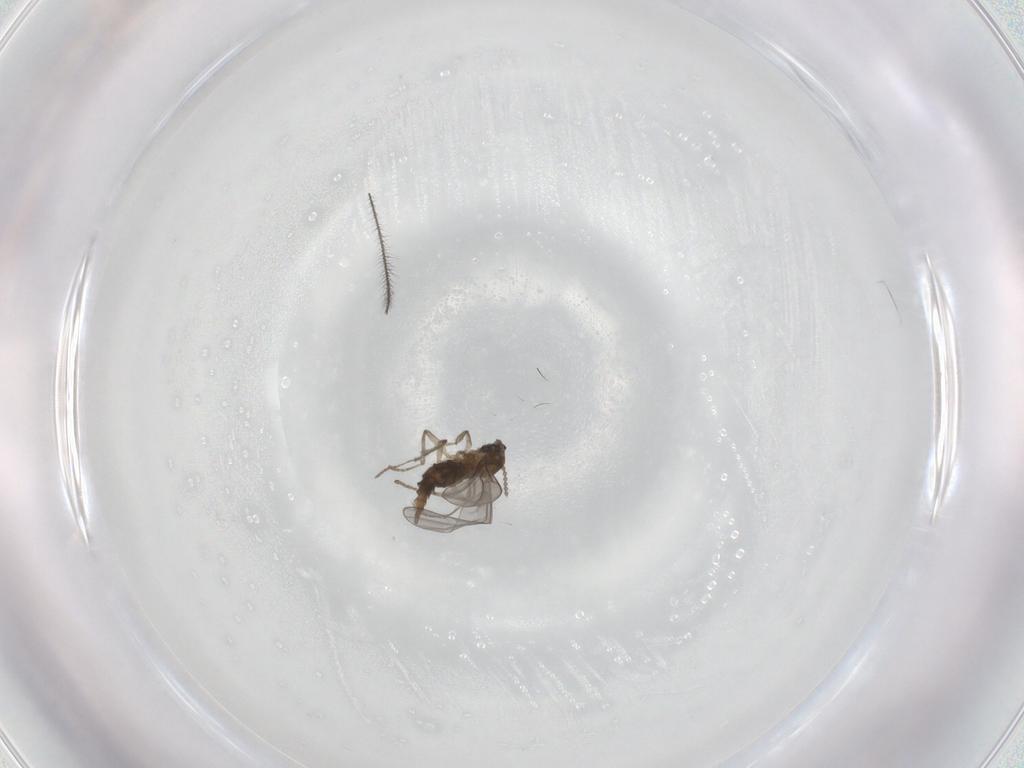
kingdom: Animalia
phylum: Arthropoda
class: Insecta
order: Diptera
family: Cecidomyiidae
